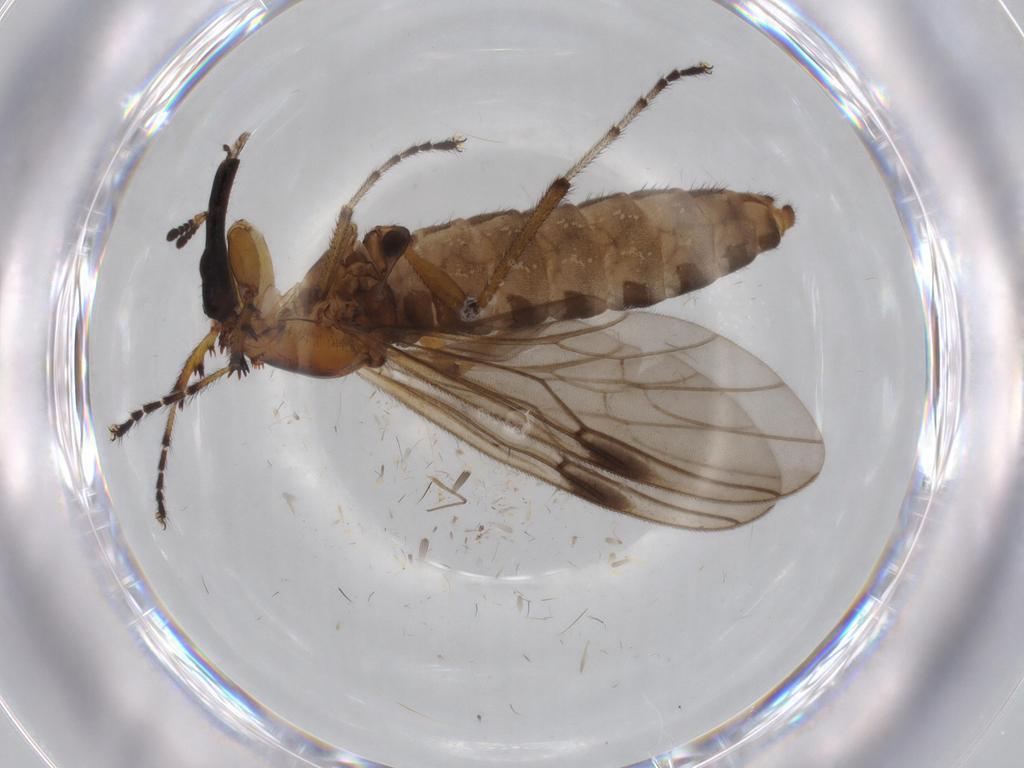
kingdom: Animalia
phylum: Arthropoda
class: Insecta
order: Diptera
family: Bibionidae
